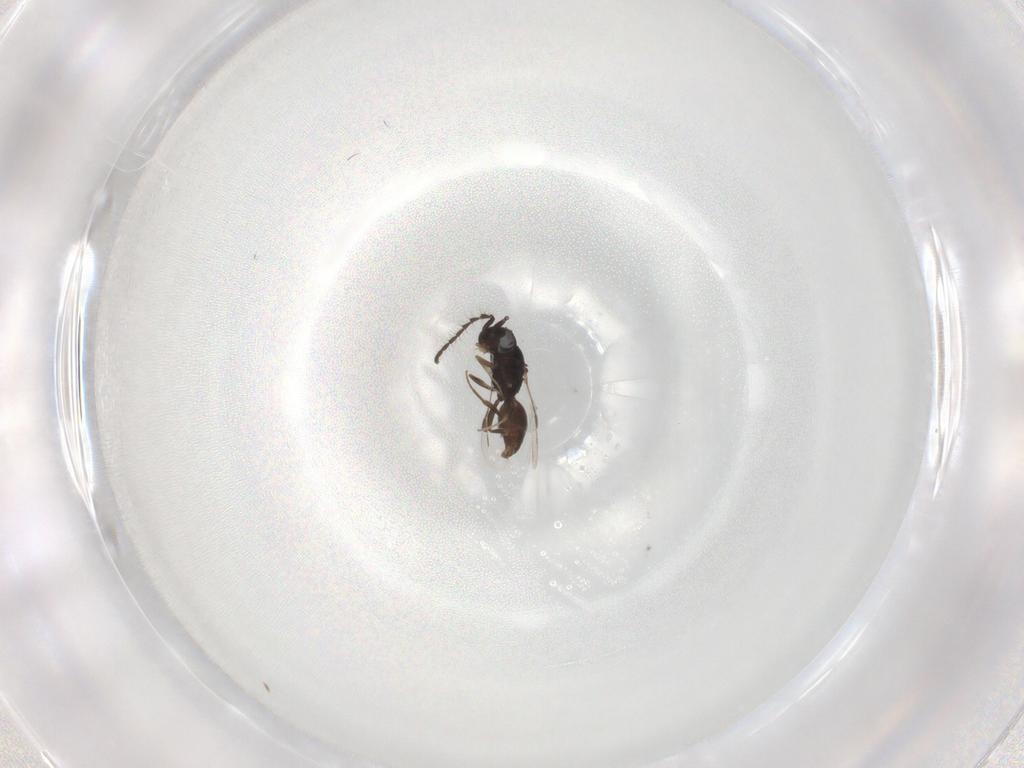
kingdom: Animalia
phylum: Arthropoda
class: Insecta
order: Hymenoptera
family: Megaspilidae
